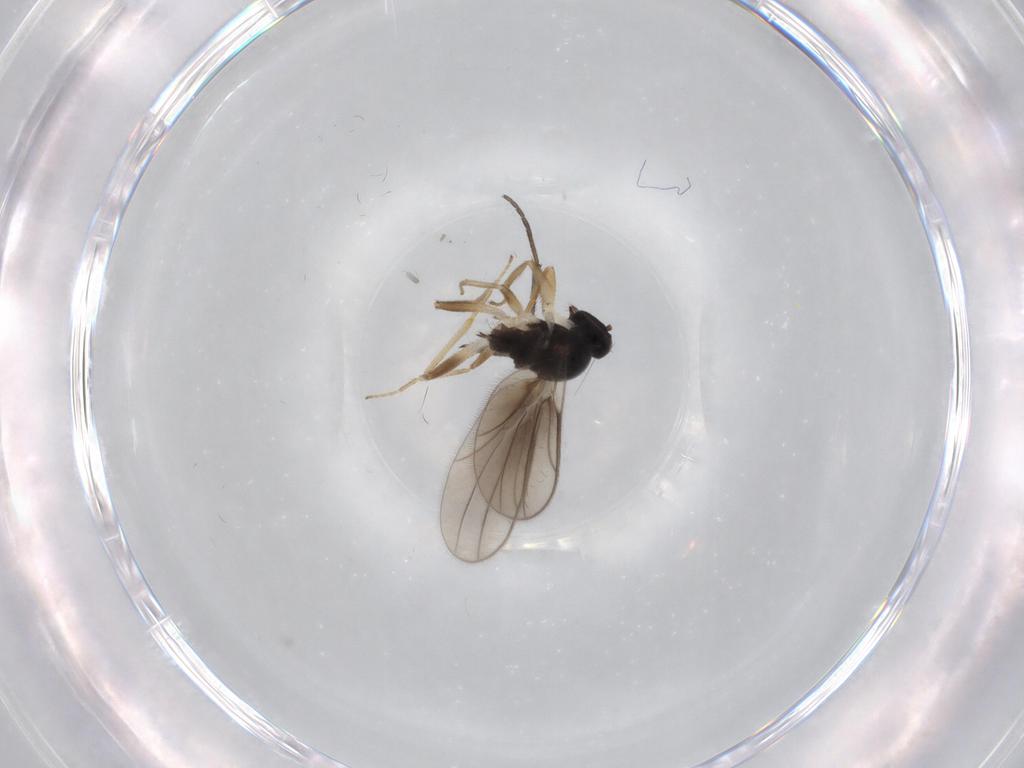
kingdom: Animalia
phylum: Arthropoda
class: Insecta
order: Diptera
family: Hybotidae
